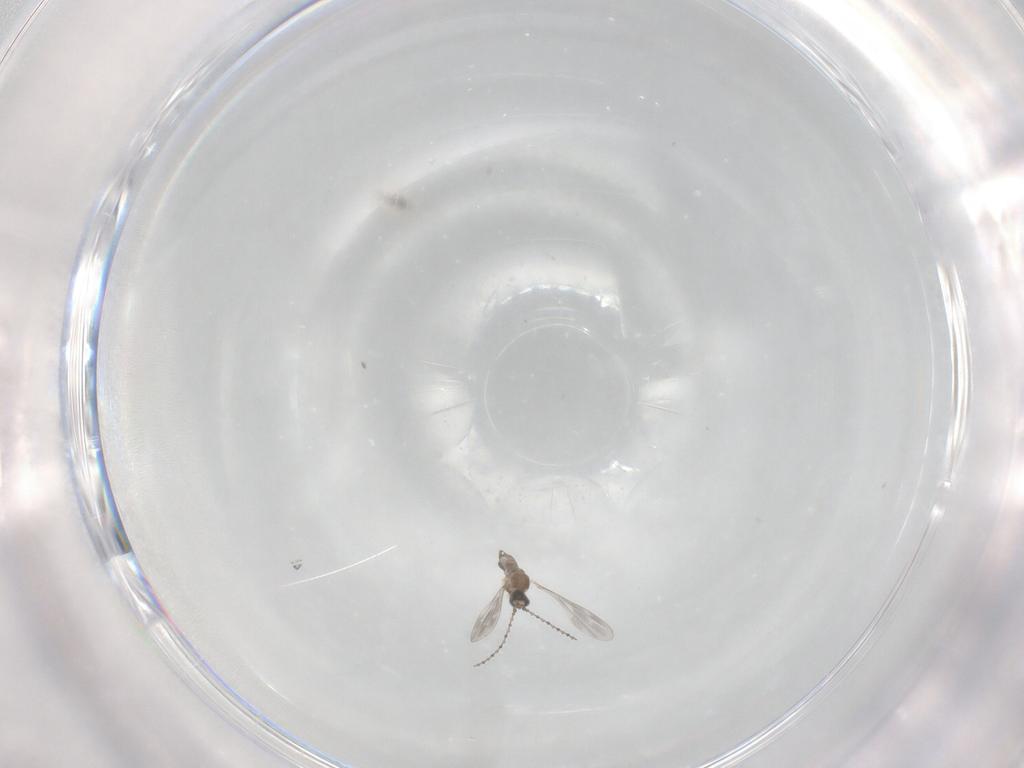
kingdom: Animalia
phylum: Arthropoda
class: Insecta
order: Diptera
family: Cecidomyiidae
